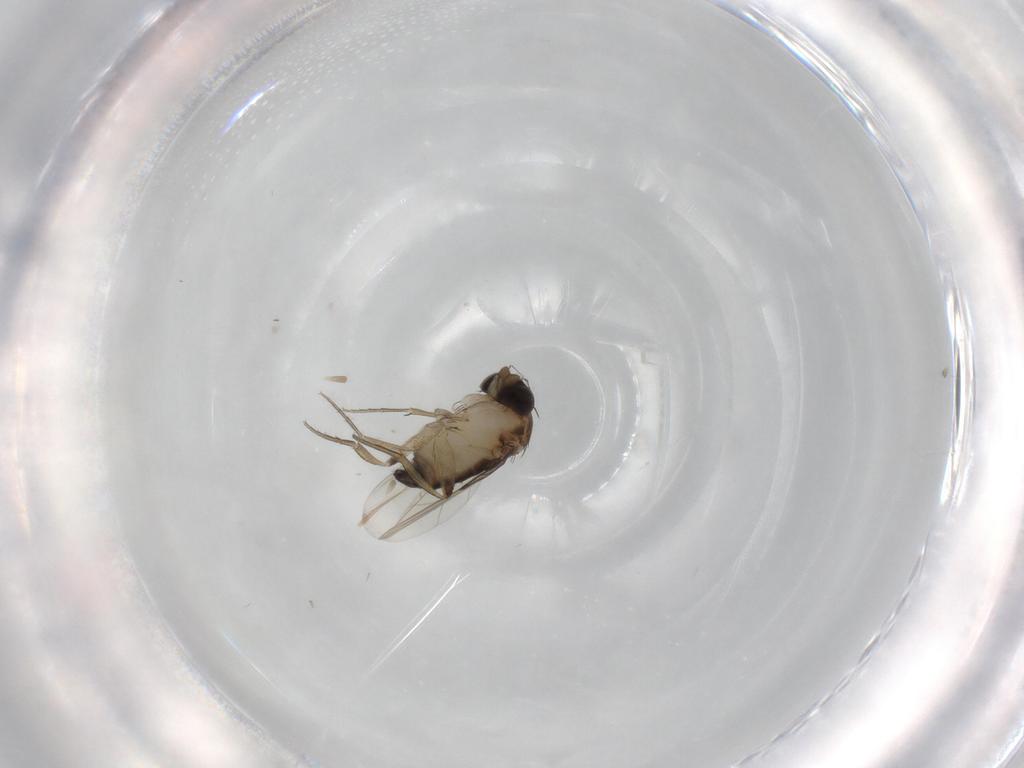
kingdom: Animalia
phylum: Arthropoda
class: Insecta
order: Diptera
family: Phoridae
